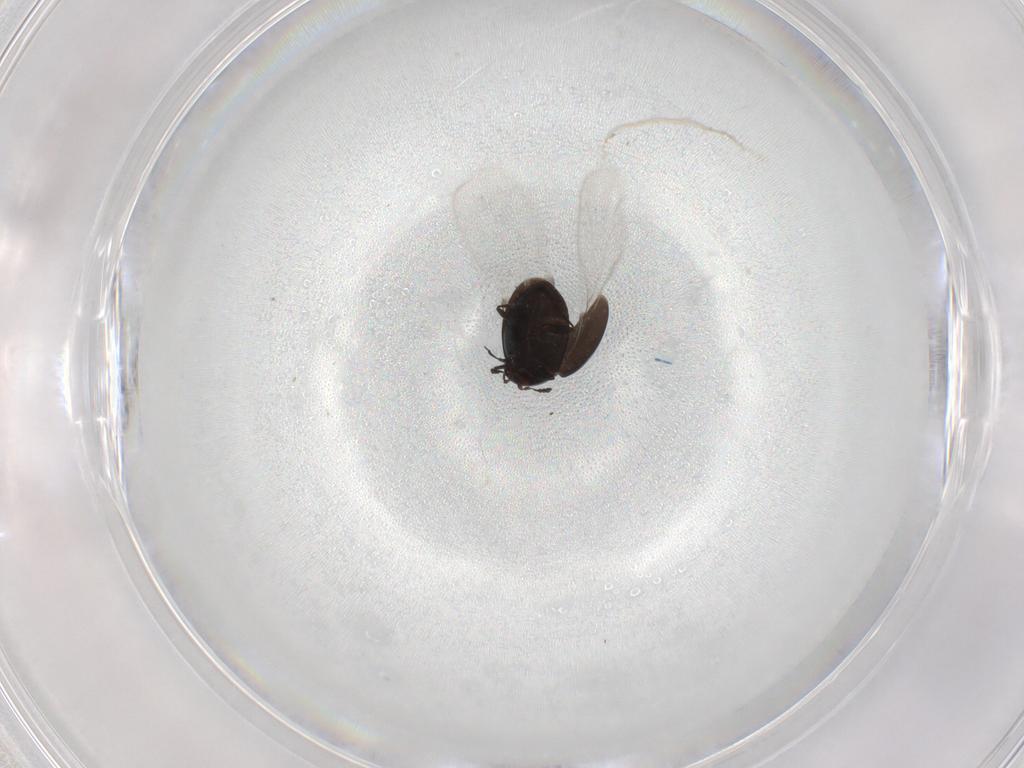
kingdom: Animalia
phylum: Arthropoda
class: Insecta
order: Coleoptera
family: Corylophidae
